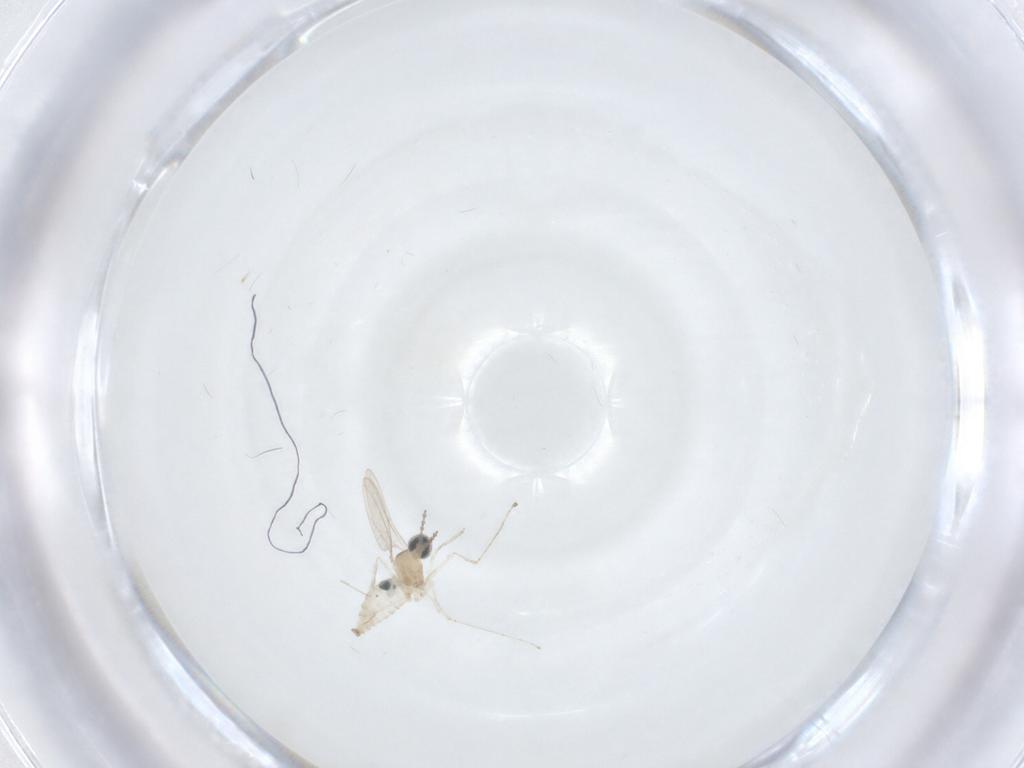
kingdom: Animalia
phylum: Arthropoda
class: Insecta
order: Diptera
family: Cecidomyiidae
